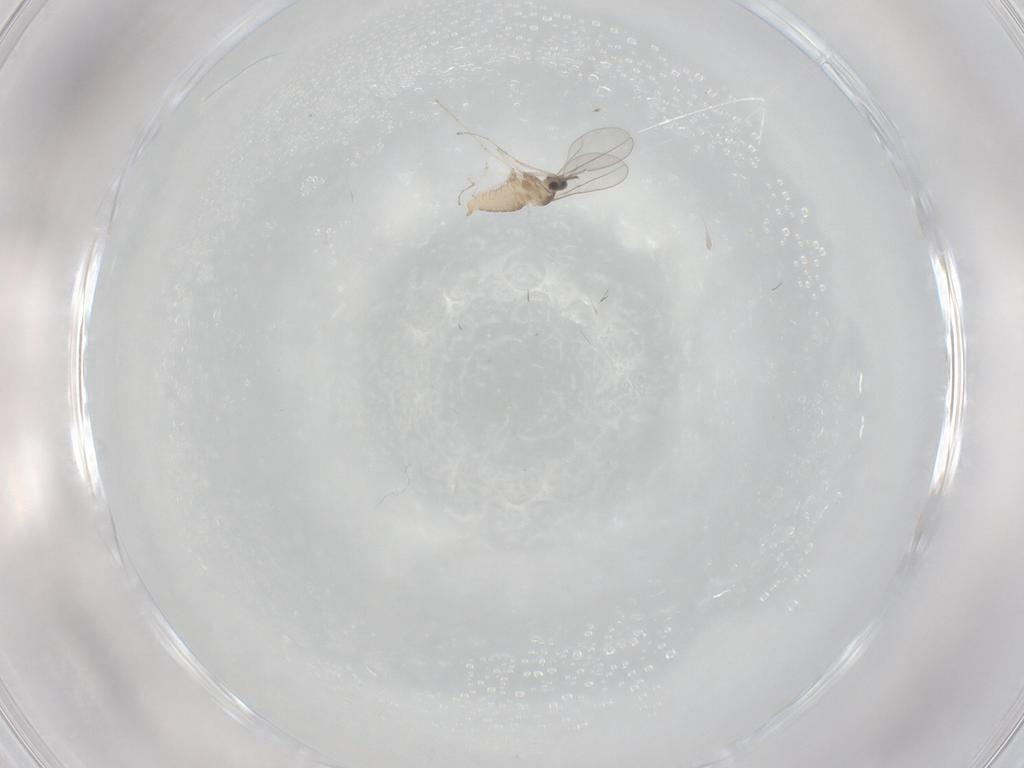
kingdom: Animalia
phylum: Arthropoda
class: Insecta
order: Diptera
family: Cecidomyiidae
